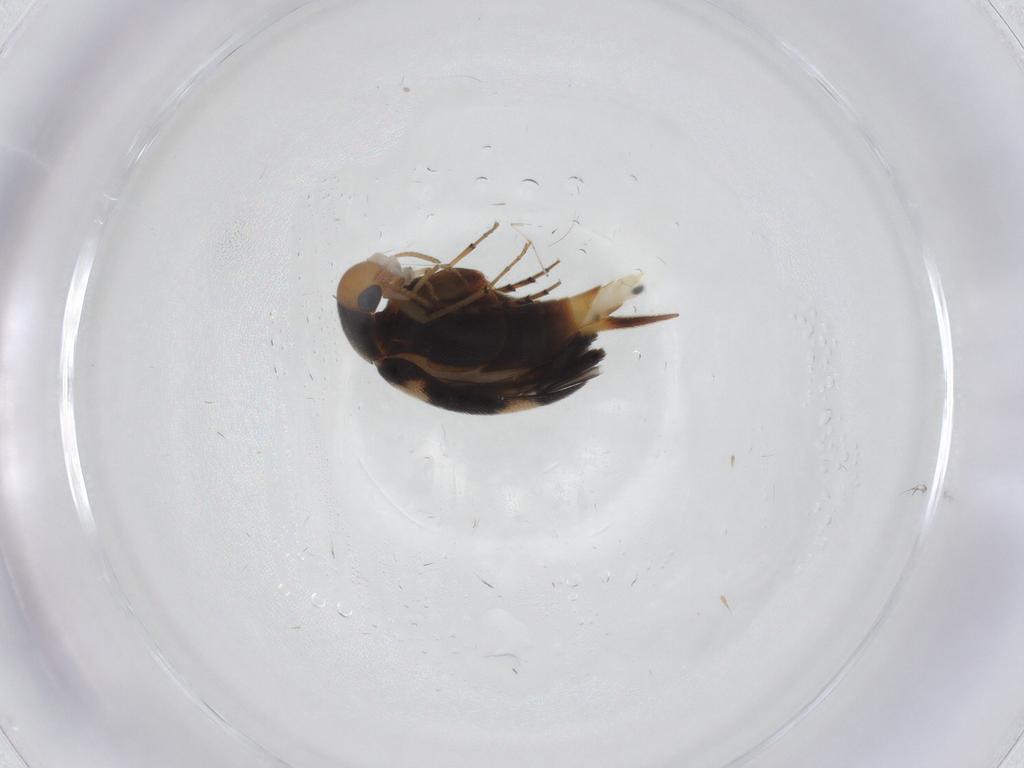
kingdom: Animalia
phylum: Arthropoda
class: Insecta
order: Coleoptera
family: Mordellidae
